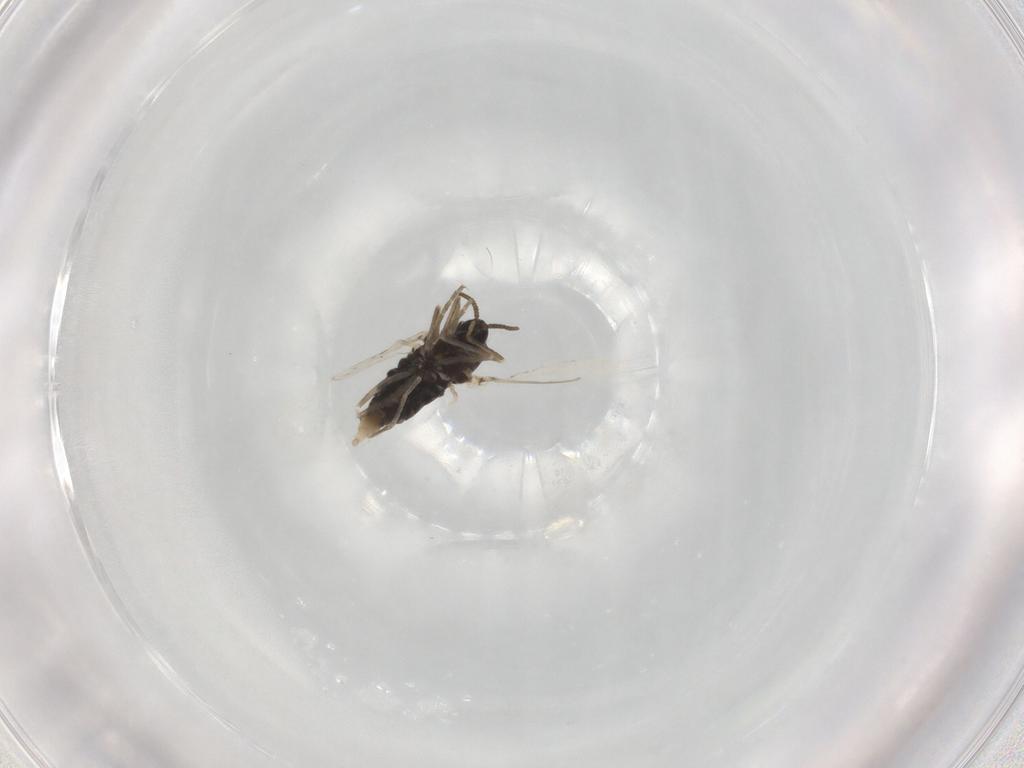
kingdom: Animalia
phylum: Arthropoda
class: Insecta
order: Diptera
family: Cecidomyiidae
